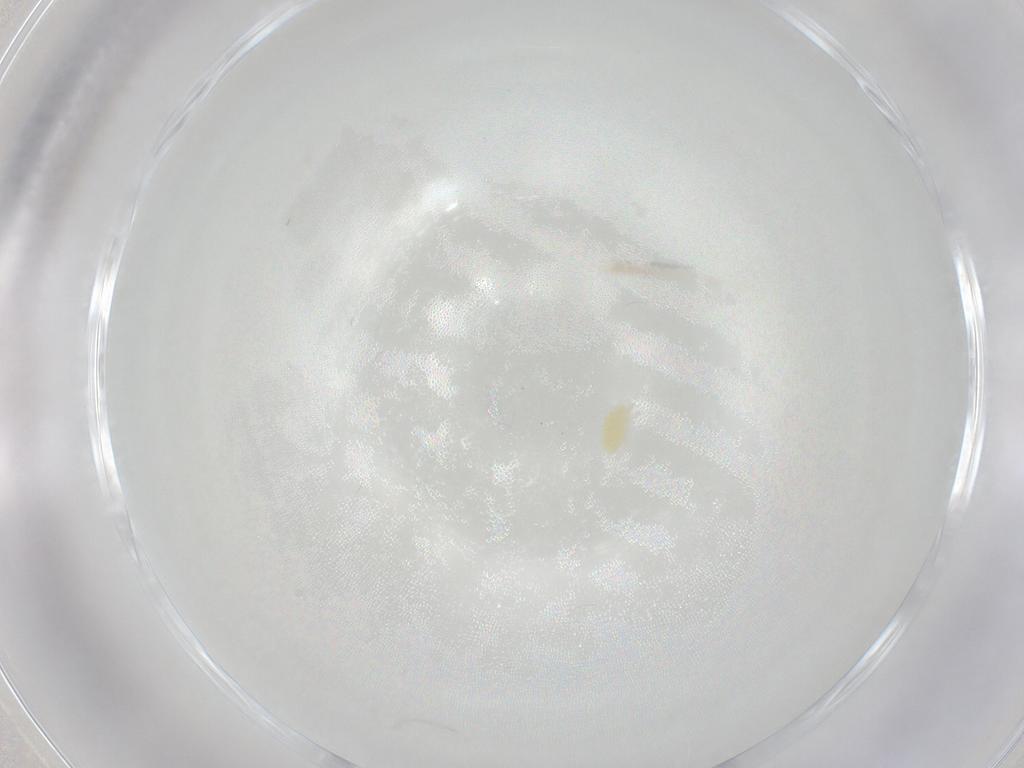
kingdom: Animalia
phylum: Arthropoda
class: Arachnida
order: Trombidiformes
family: Eupodidae
